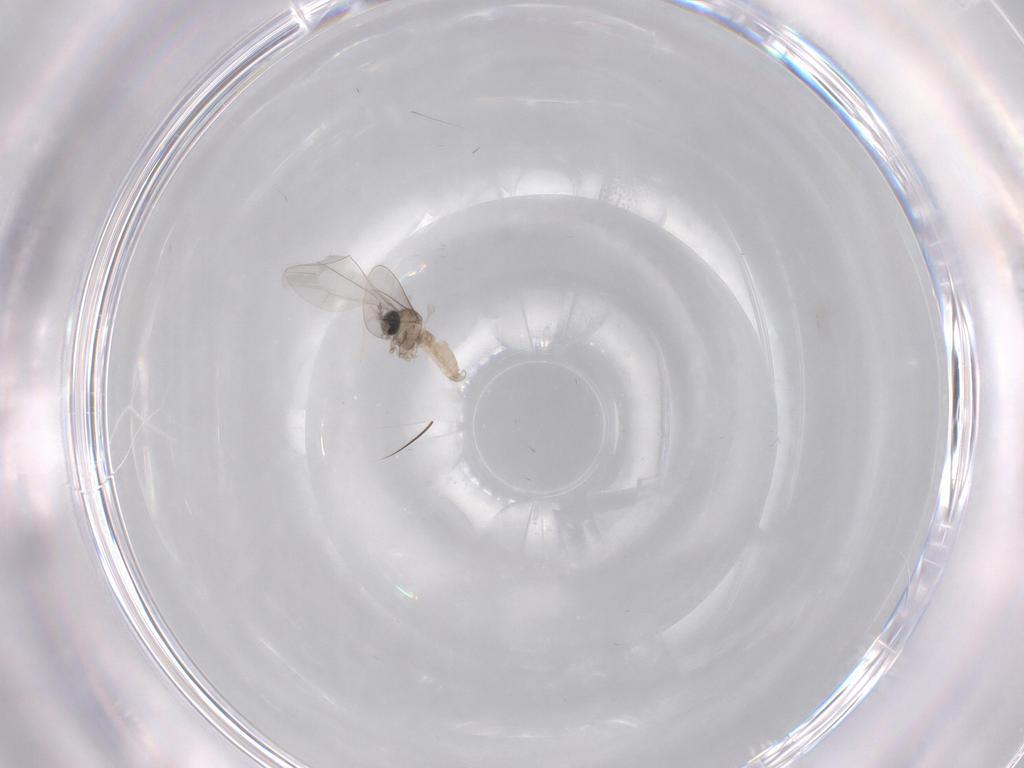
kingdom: Animalia
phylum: Arthropoda
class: Insecta
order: Diptera
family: Cecidomyiidae
